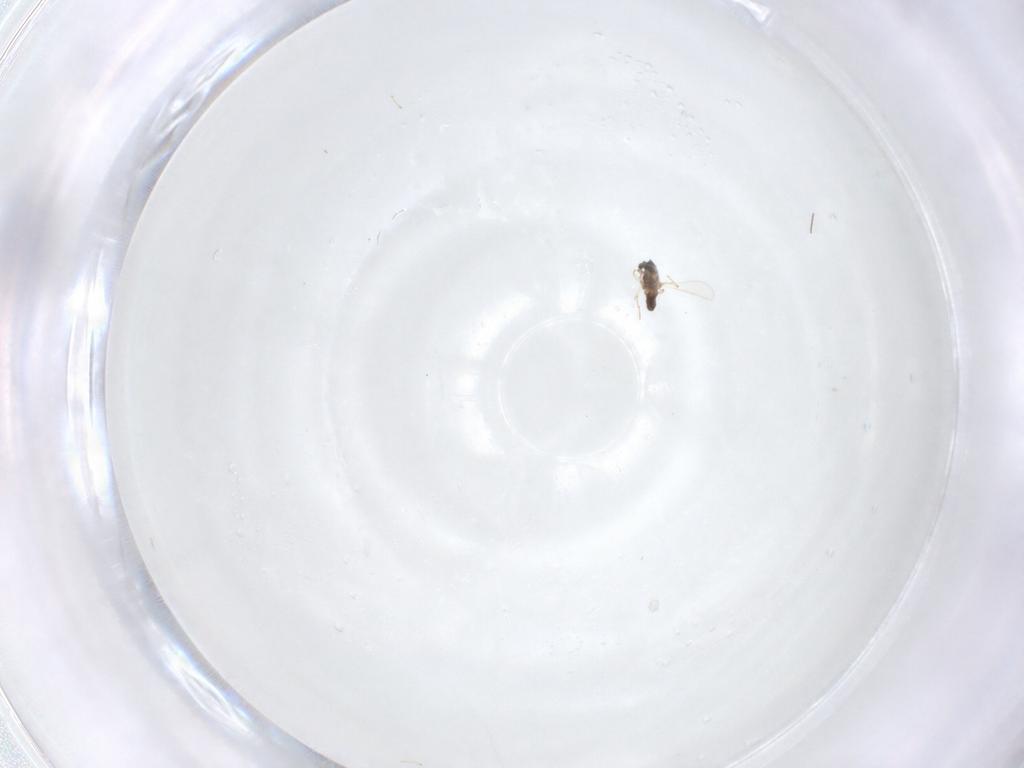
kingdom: Animalia
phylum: Arthropoda
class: Insecta
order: Diptera
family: Chironomidae
